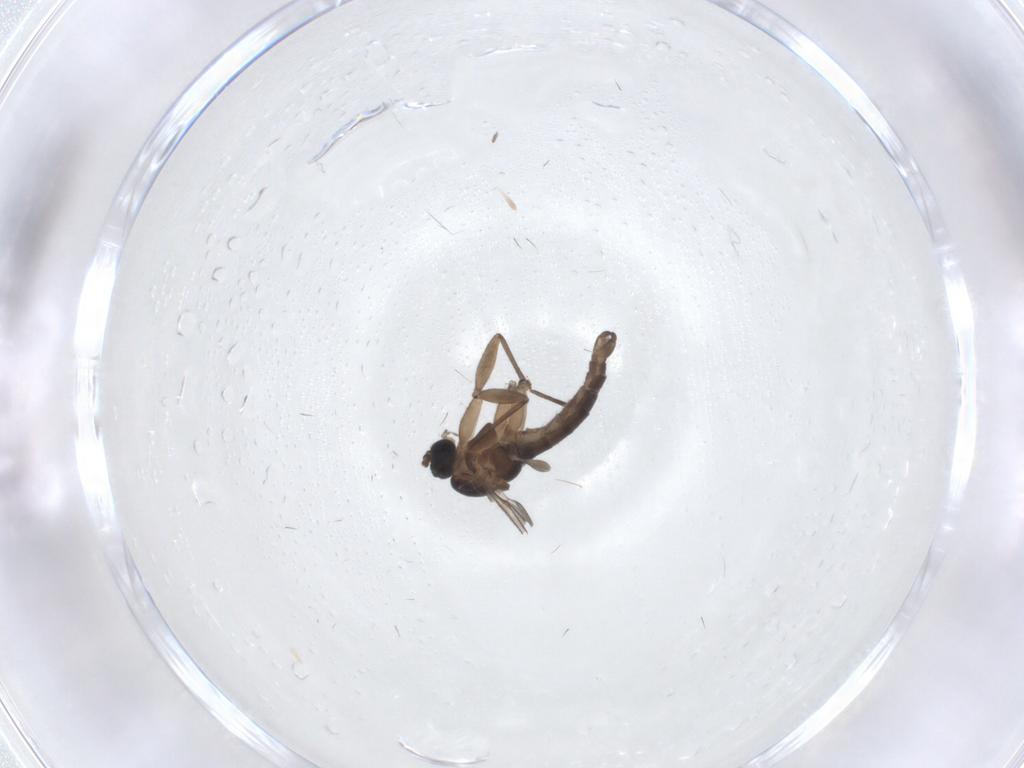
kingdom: Animalia
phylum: Arthropoda
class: Insecta
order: Diptera
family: Sciaridae
